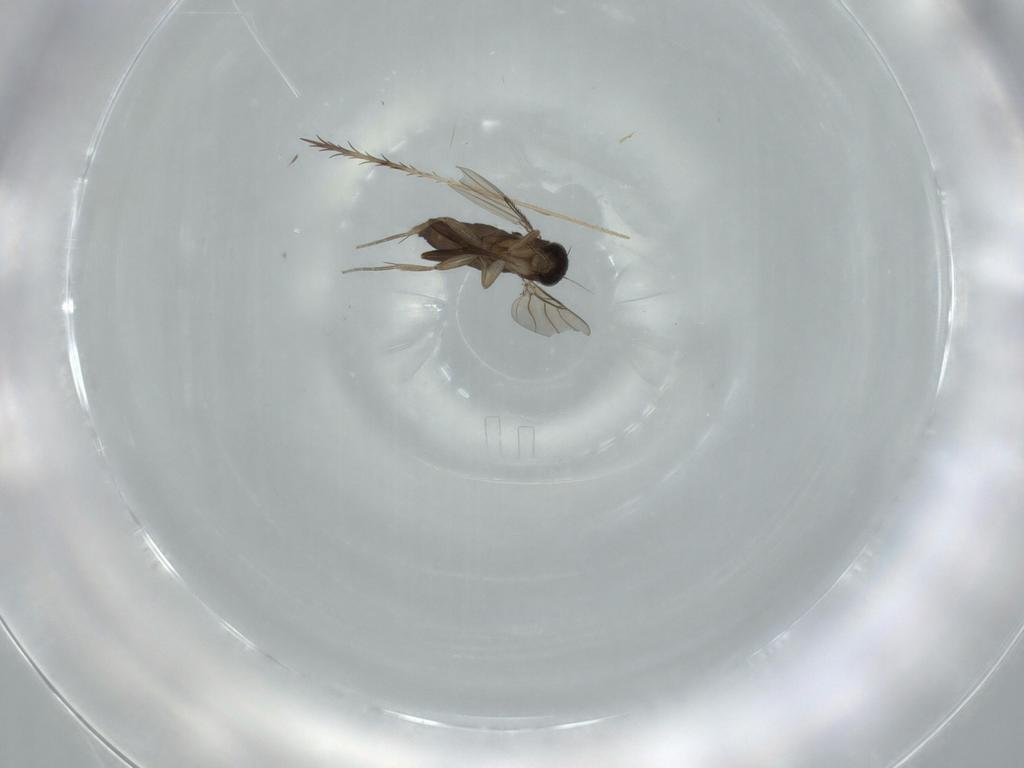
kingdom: Animalia
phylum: Arthropoda
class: Insecta
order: Diptera
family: Phoridae
